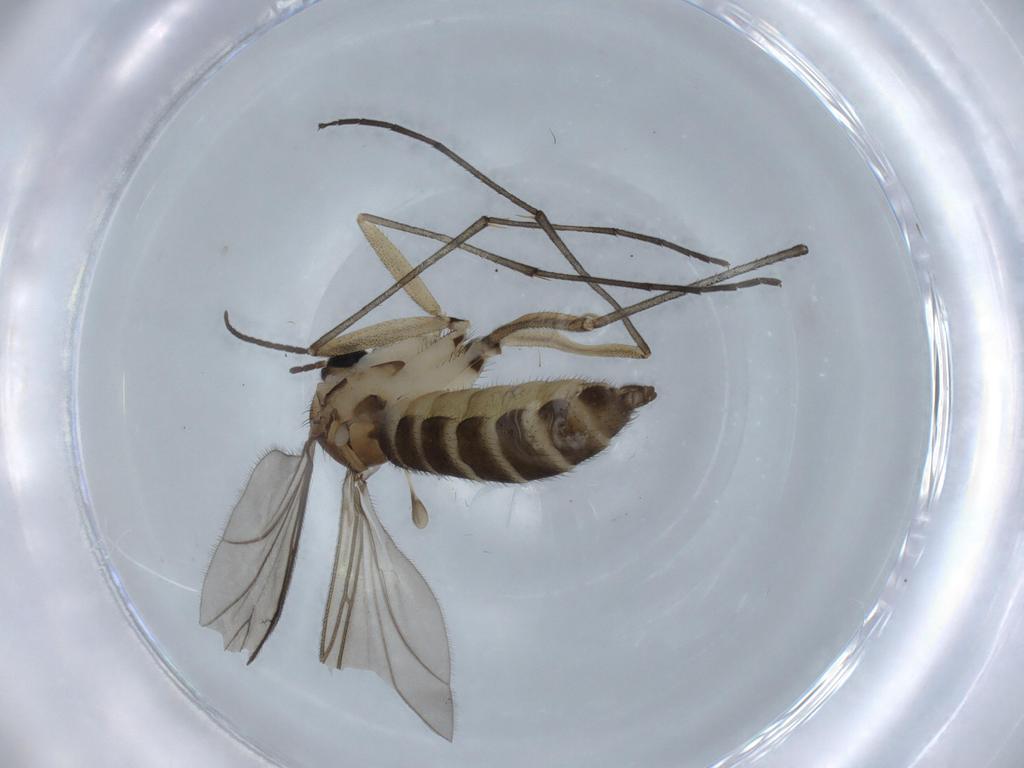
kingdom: Animalia
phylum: Arthropoda
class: Insecta
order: Diptera
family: Sciaridae
